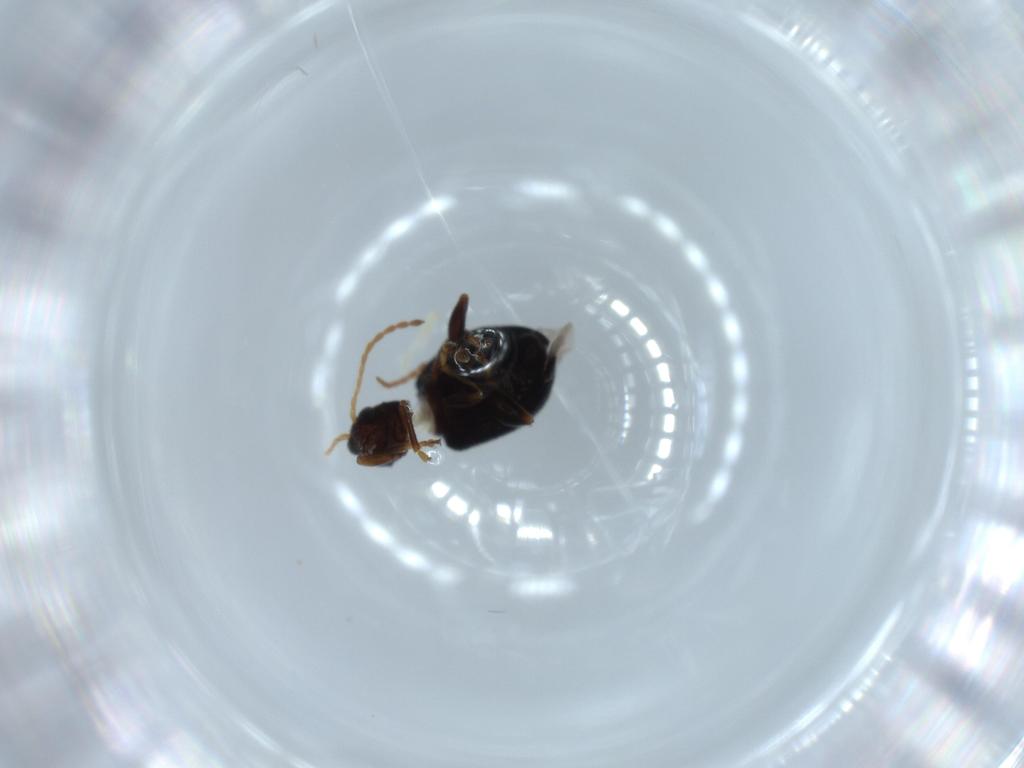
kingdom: Animalia
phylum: Arthropoda
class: Insecta
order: Coleoptera
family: Chrysomelidae
